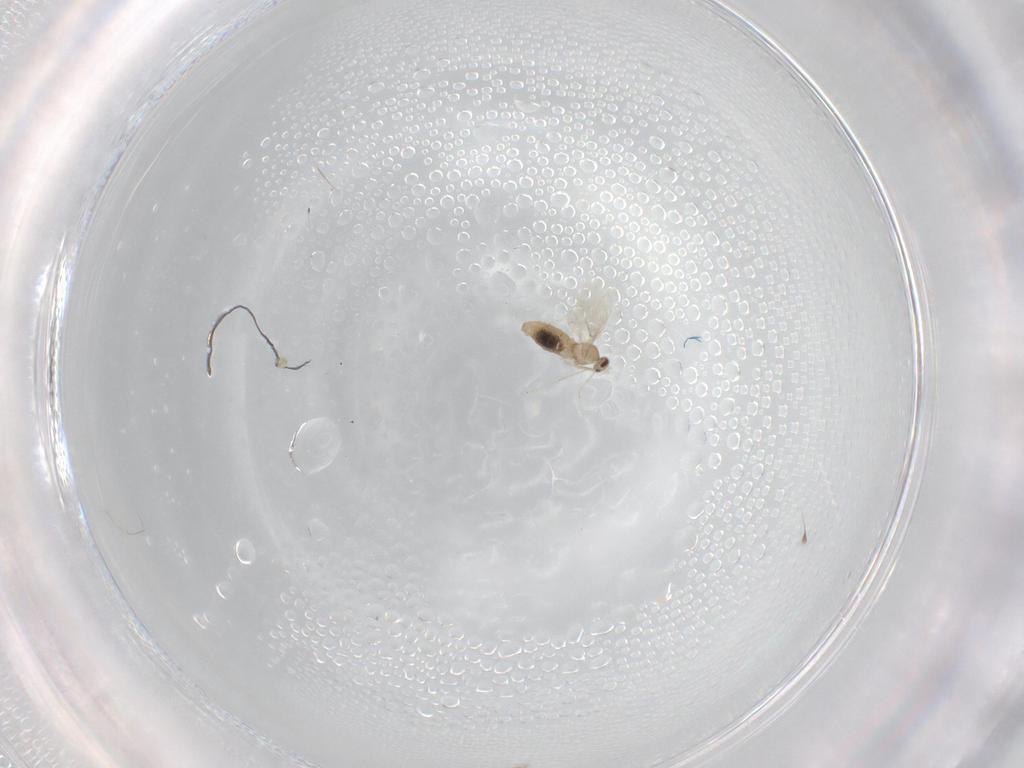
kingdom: Animalia
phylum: Arthropoda
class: Insecta
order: Diptera
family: Cecidomyiidae
